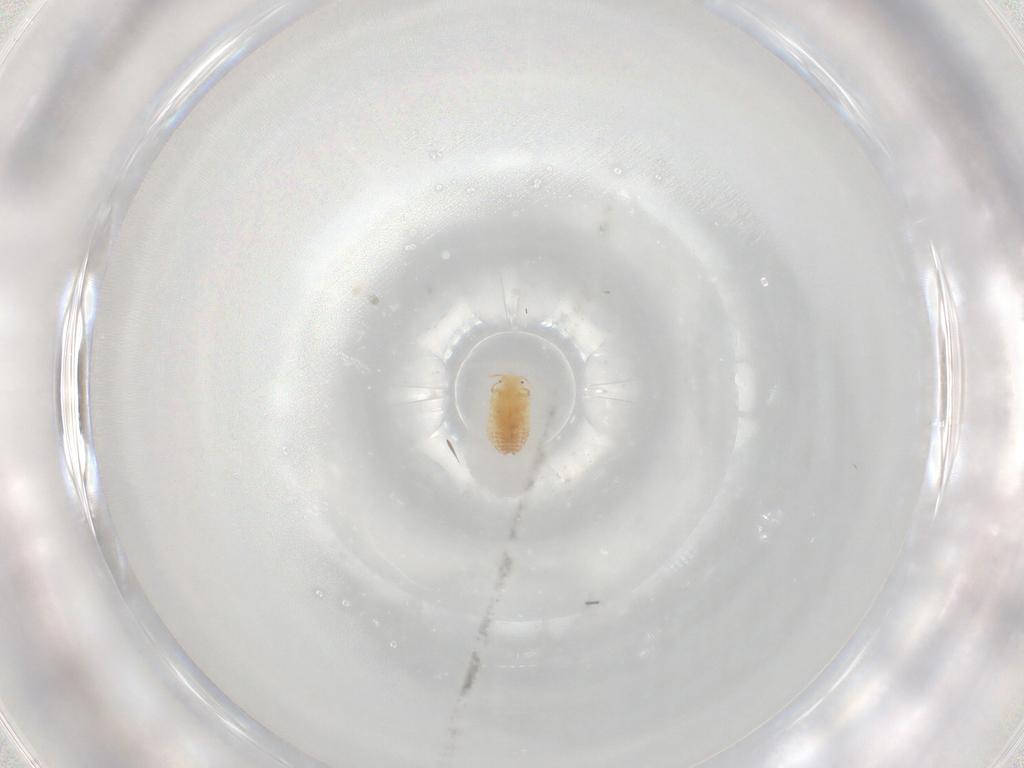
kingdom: Animalia
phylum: Arthropoda
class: Insecta
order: Hemiptera
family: Pseudococcidae
